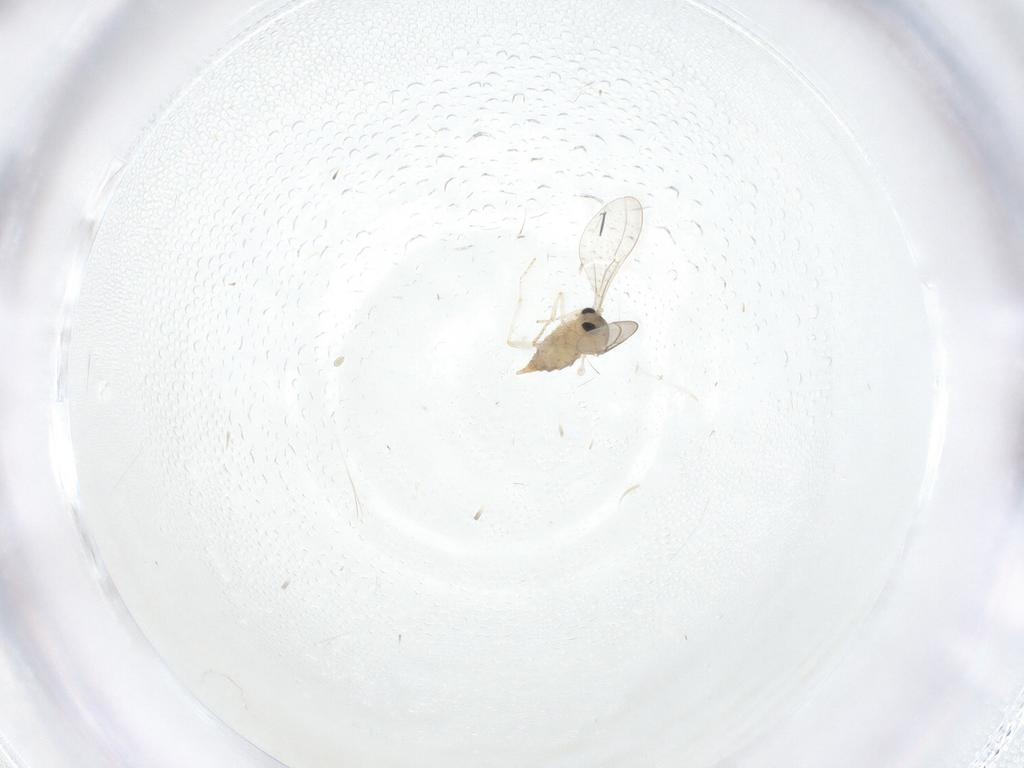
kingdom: Animalia
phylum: Arthropoda
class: Insecta
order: Diptera
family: Cecidomyiidae
